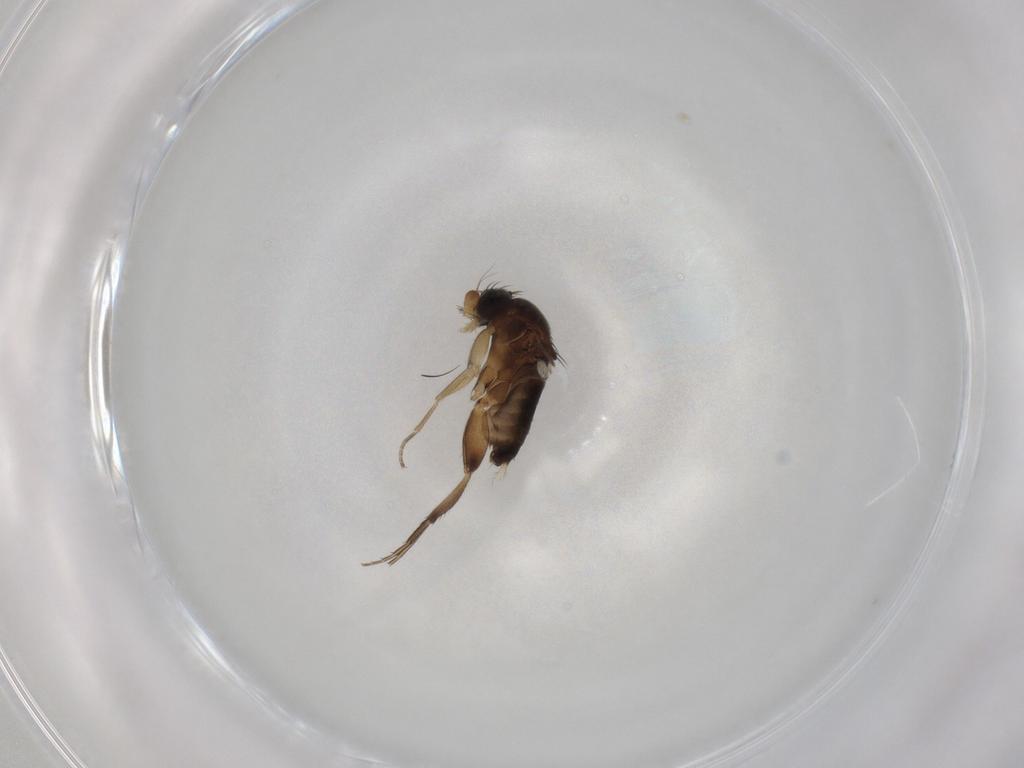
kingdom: Animalia
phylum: Arthropoda
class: Insecta
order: Diptera
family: Phoridae
